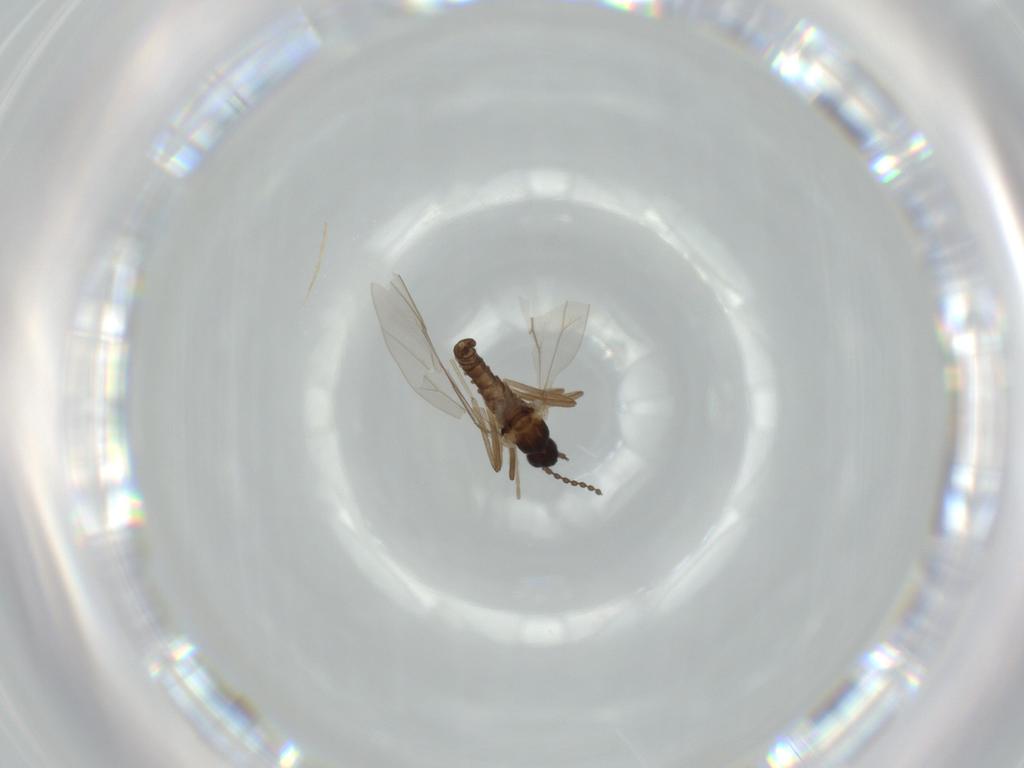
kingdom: Animalia
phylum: Arthropoda
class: Insecta
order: Diptera
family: Cecidomyiidae
